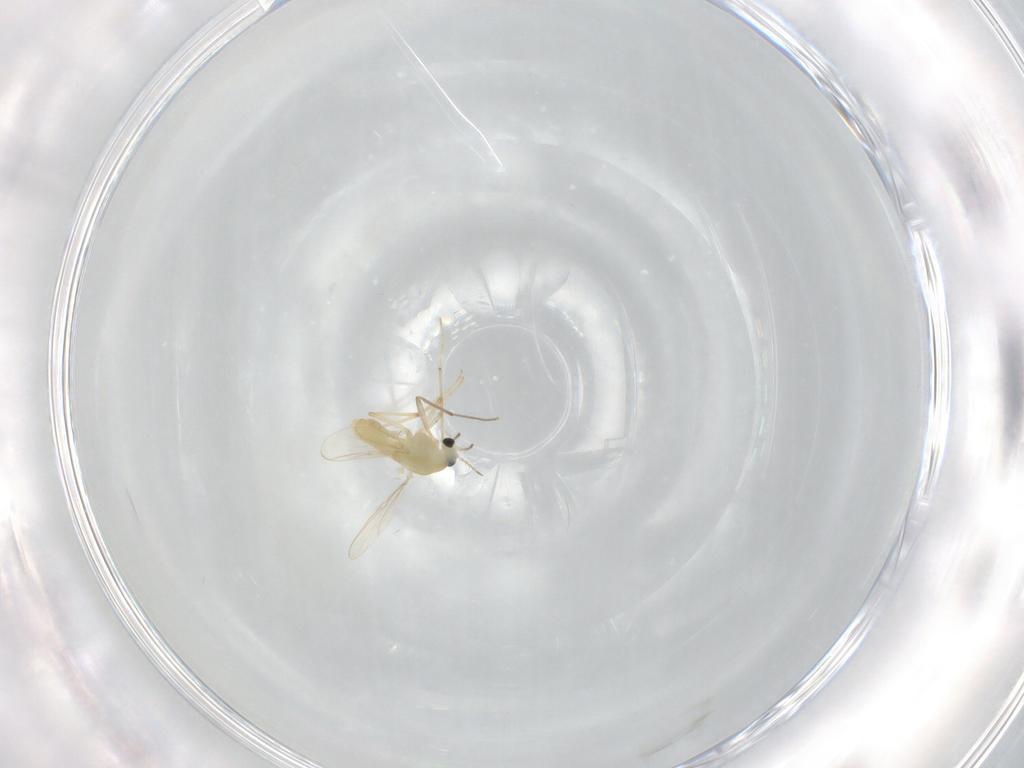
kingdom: Animalia
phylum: Arthropoda
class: Insecta
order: Diptera
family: Chironomidae
